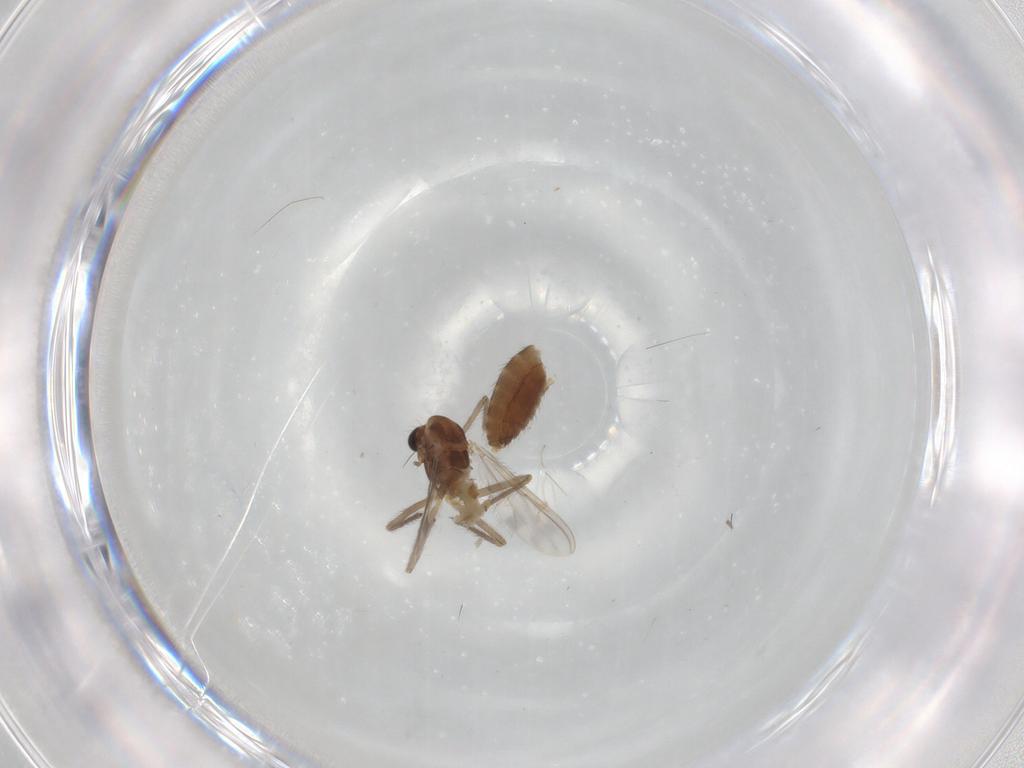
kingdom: Animalia
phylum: Arthropoda
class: Insecta
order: Diptera
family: Chironomidae
